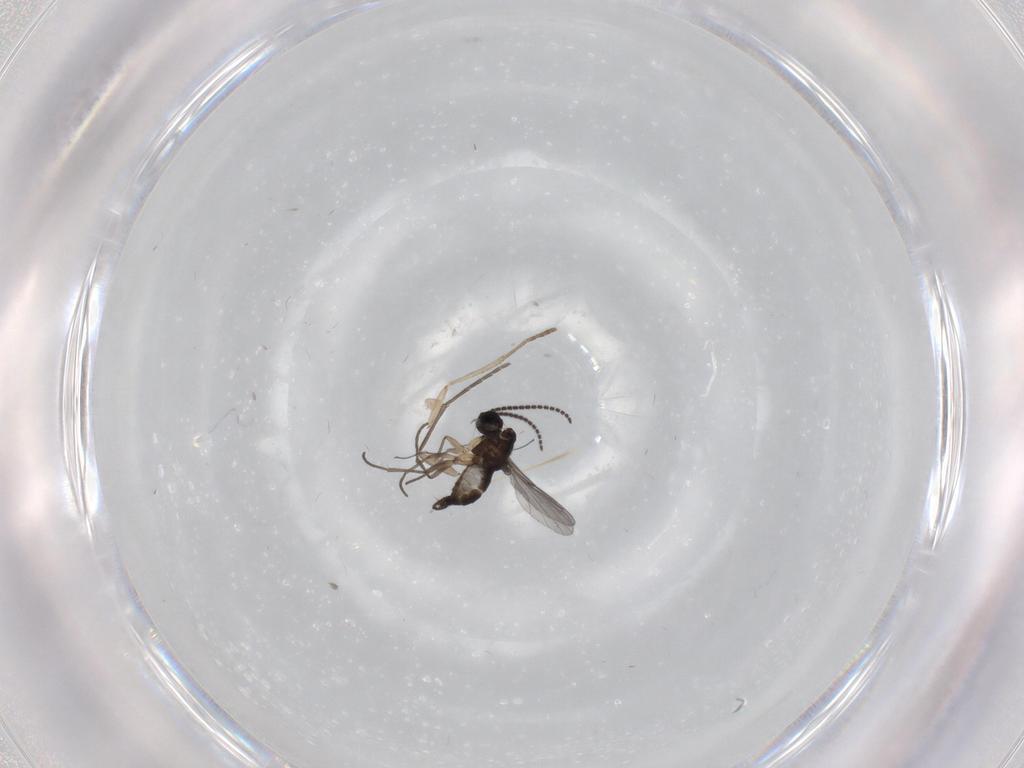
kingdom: Animalia
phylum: Arthropoda
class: Insecta
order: Diptera
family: Sciaridae
